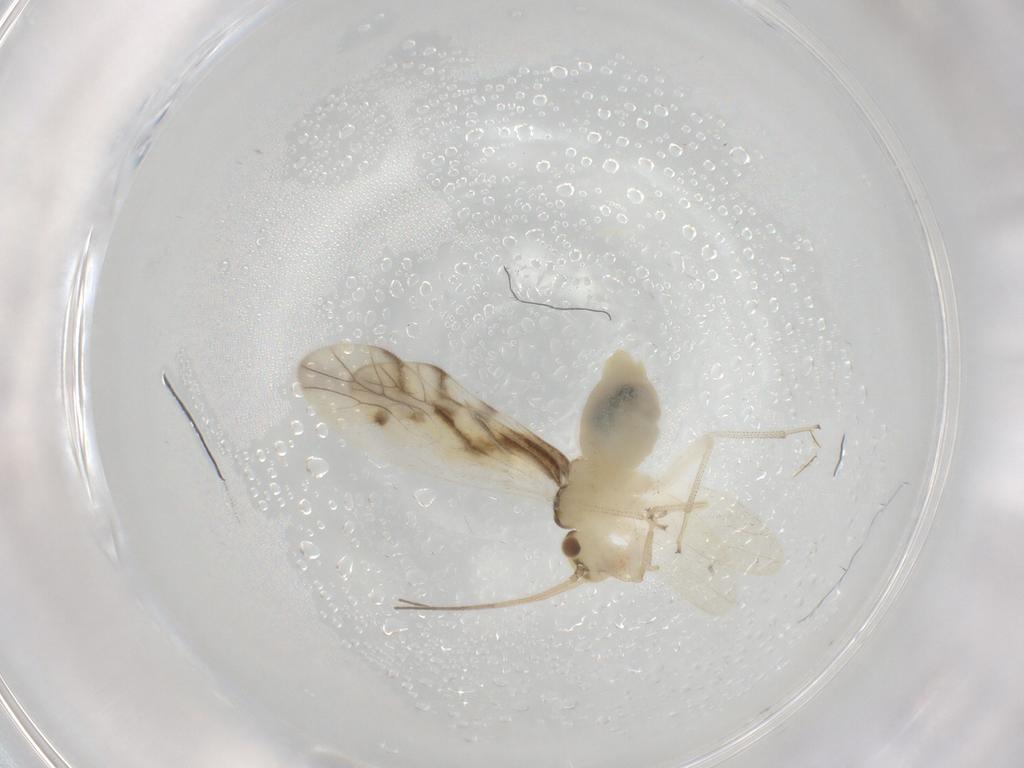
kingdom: Animalia
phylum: Arthropoda
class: Insecta
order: Psocodea
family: Caeciliusidae
